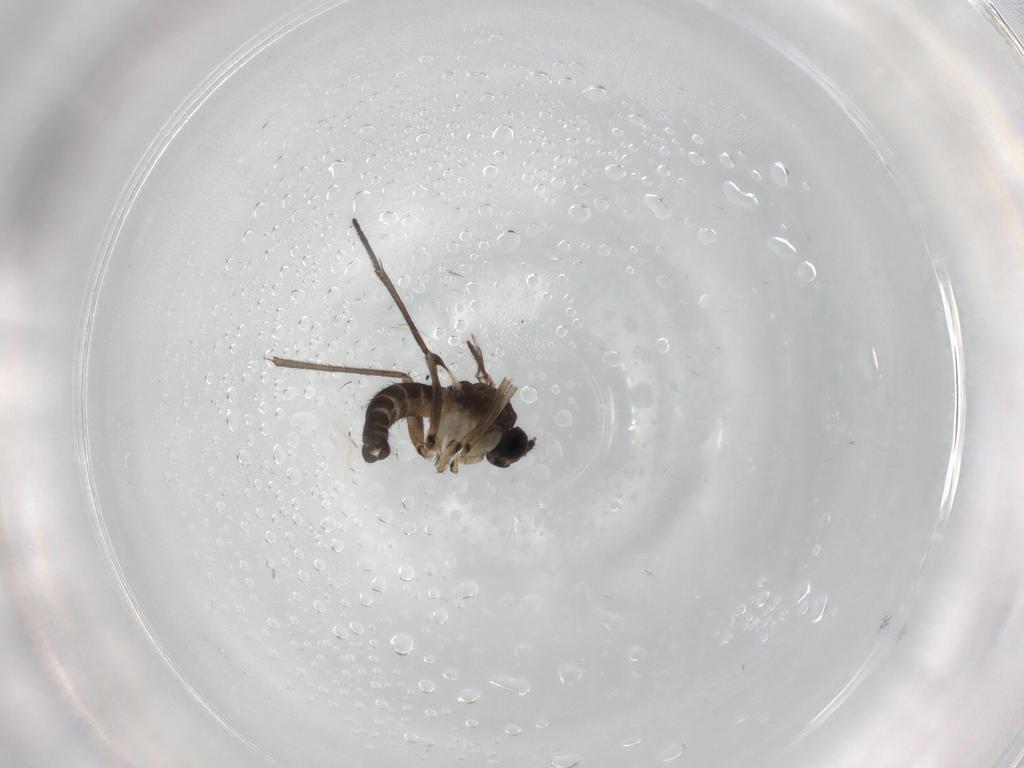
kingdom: Animalia
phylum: Arthropoda
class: Insecta
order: Diptera
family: Sciaridae
